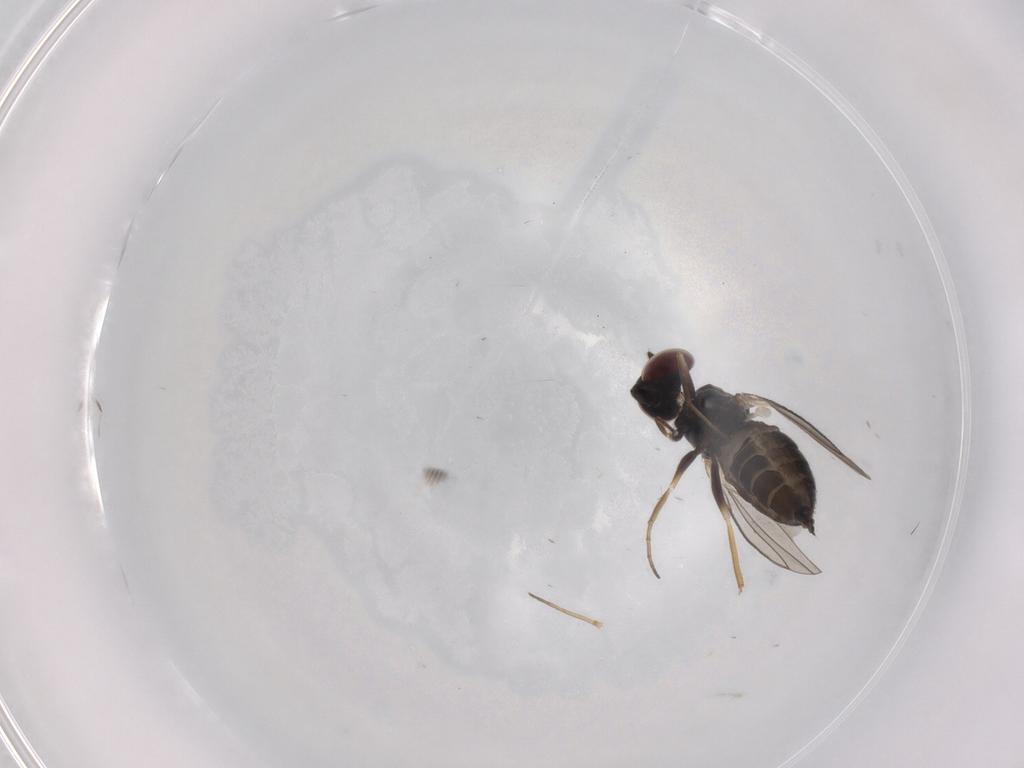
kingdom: Animalia
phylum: Arthropoda
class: Insecta
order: Diptera
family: Dolichopodidae
